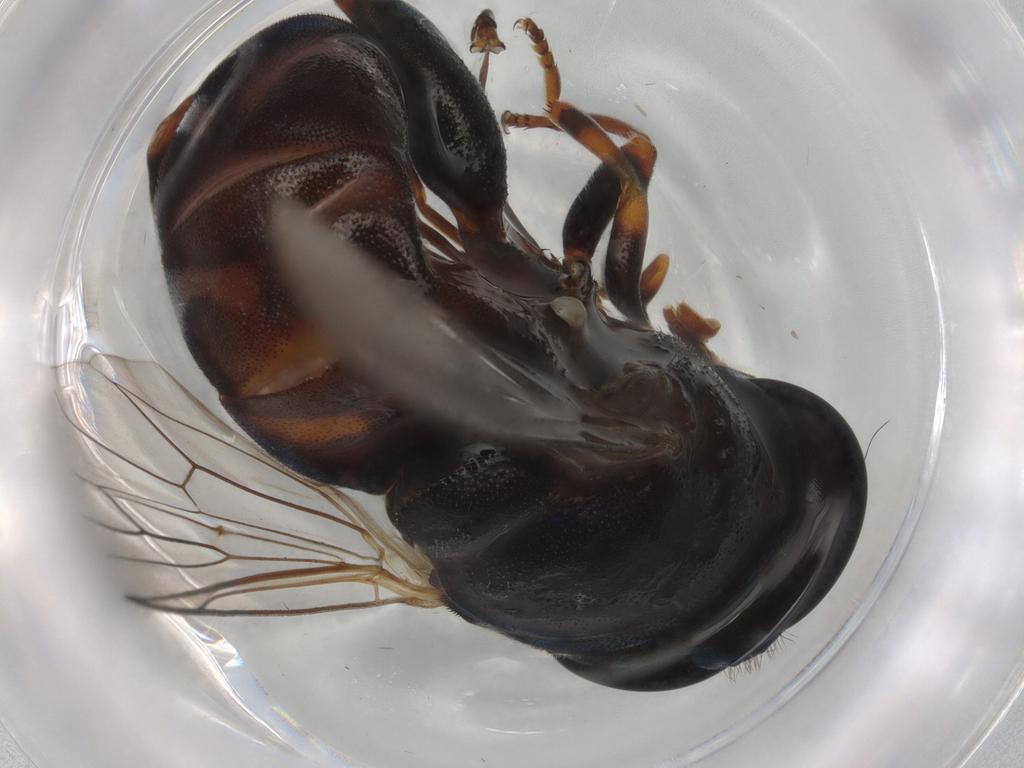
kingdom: Animalia
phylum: Arthropoda
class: Insecta
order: Diptera
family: Syrphidae
